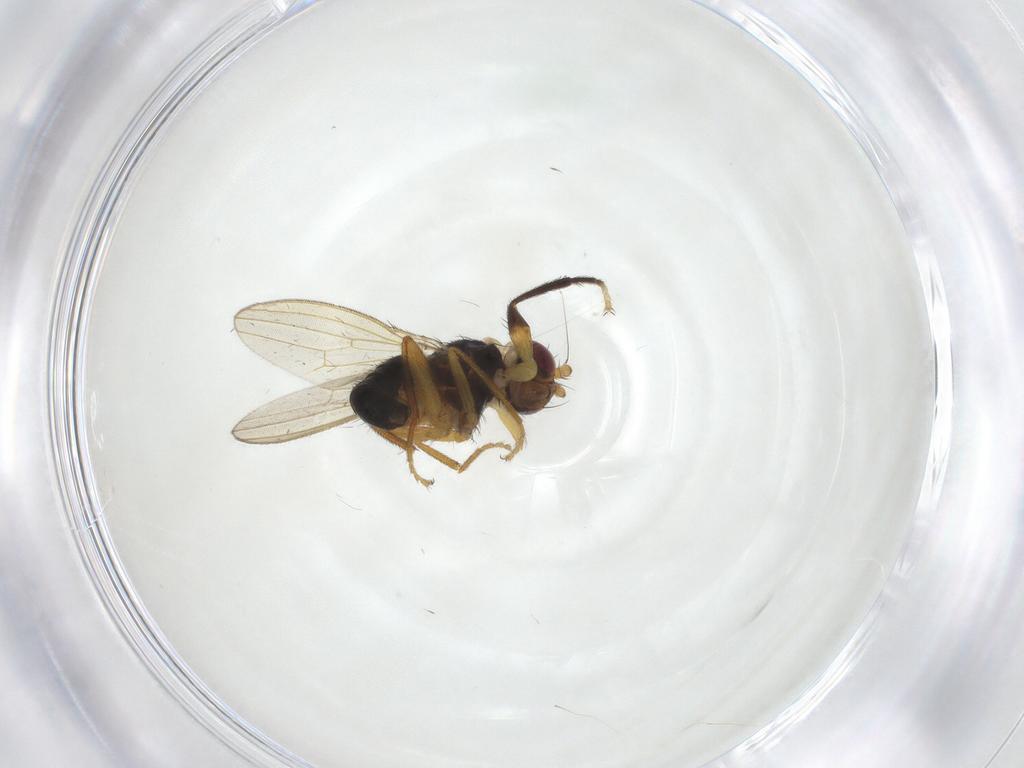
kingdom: Animalia
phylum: Arthropoda
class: Insecta
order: Diptera
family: Pseudopomyzidae
